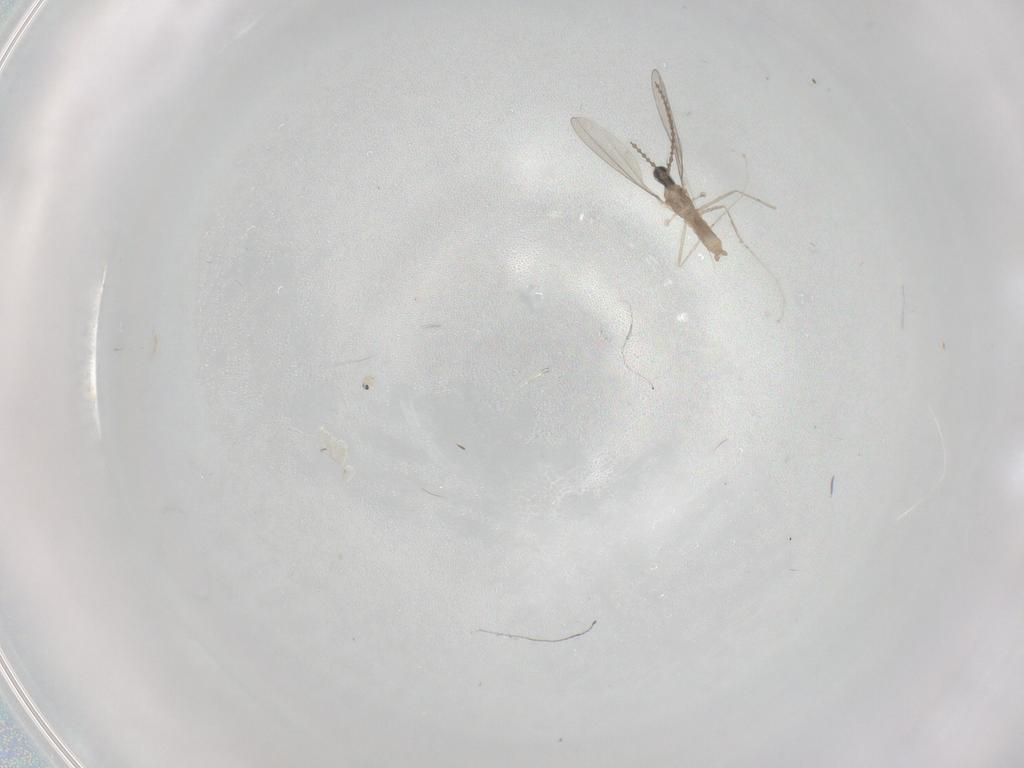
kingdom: Animalia
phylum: Arthropoda
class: Insecta
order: Diptera
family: Cecidomyiidae
